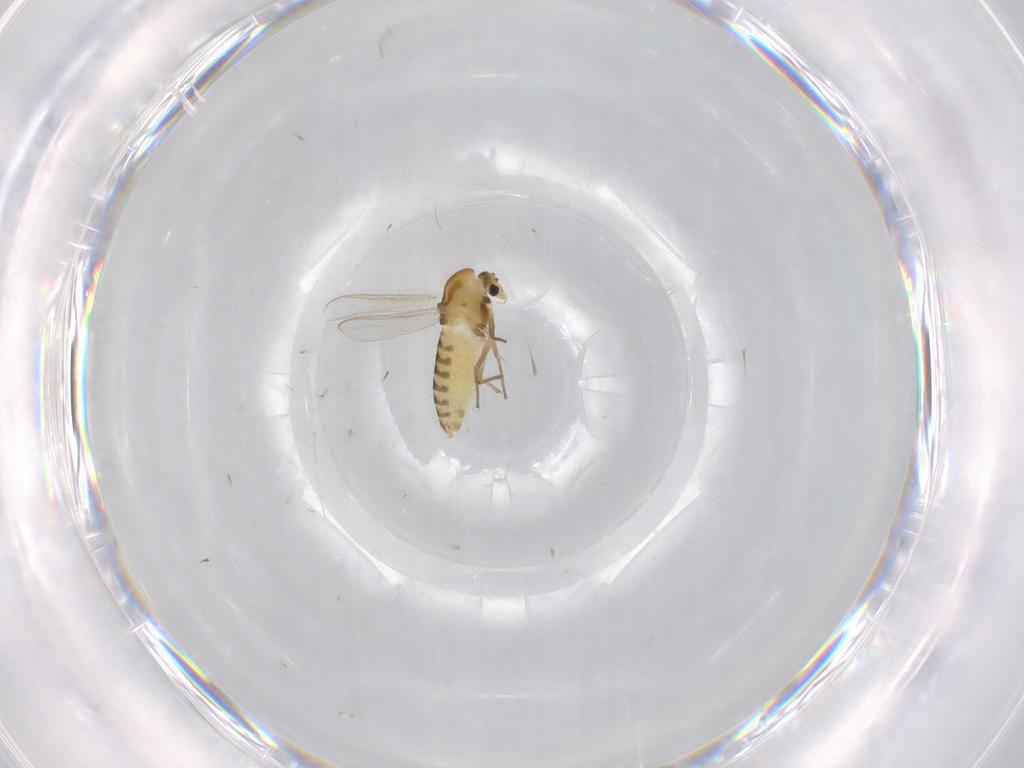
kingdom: Animalia
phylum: Arthropoda
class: Insecta
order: Diptera
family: Chironomidae
